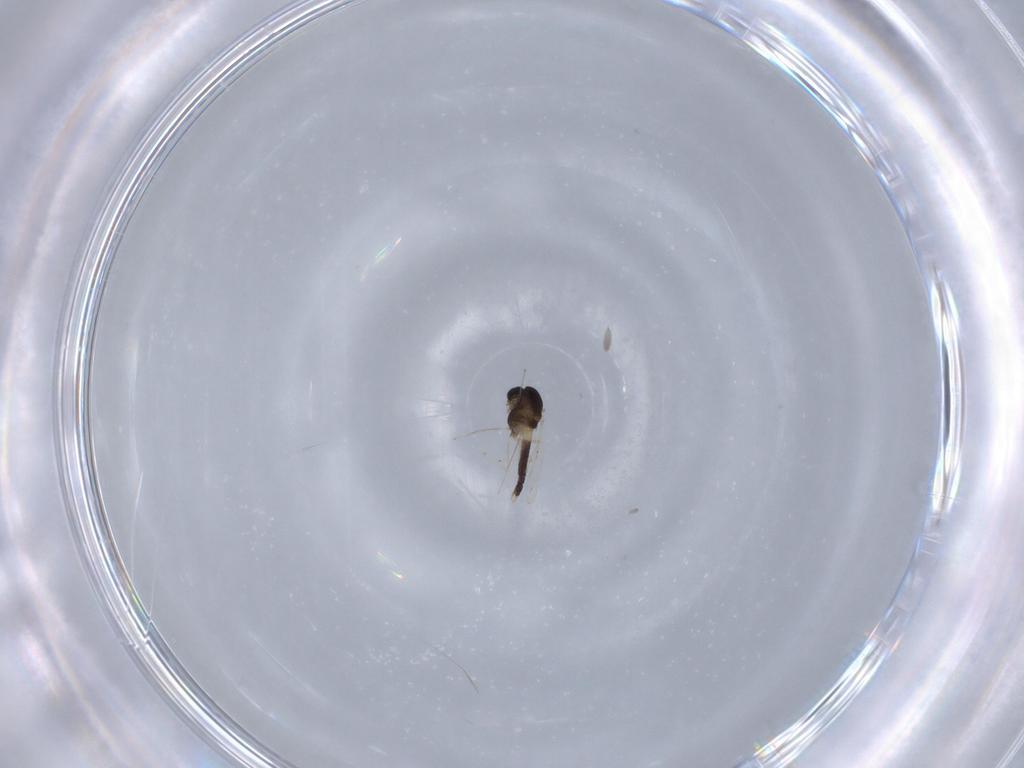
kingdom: Animalia
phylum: Arthropoda
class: Insecta
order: Diptera
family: Chironomidae
